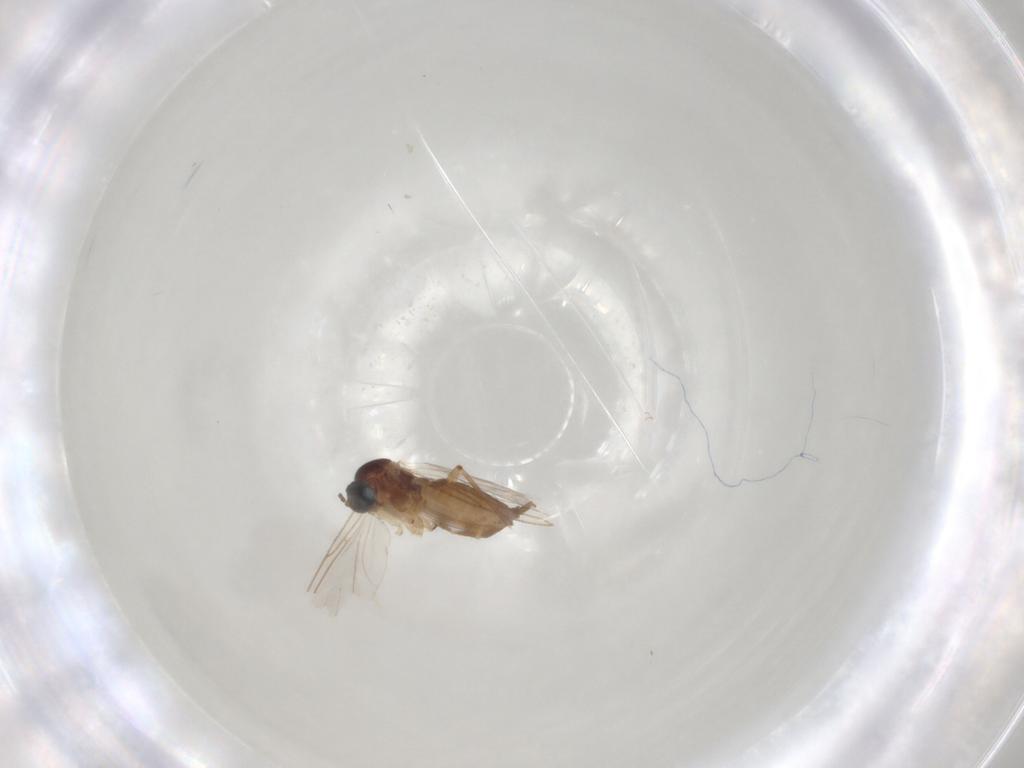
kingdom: Animalia
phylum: Arthropoda
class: Insecta
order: Diptera
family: Sciaridae
